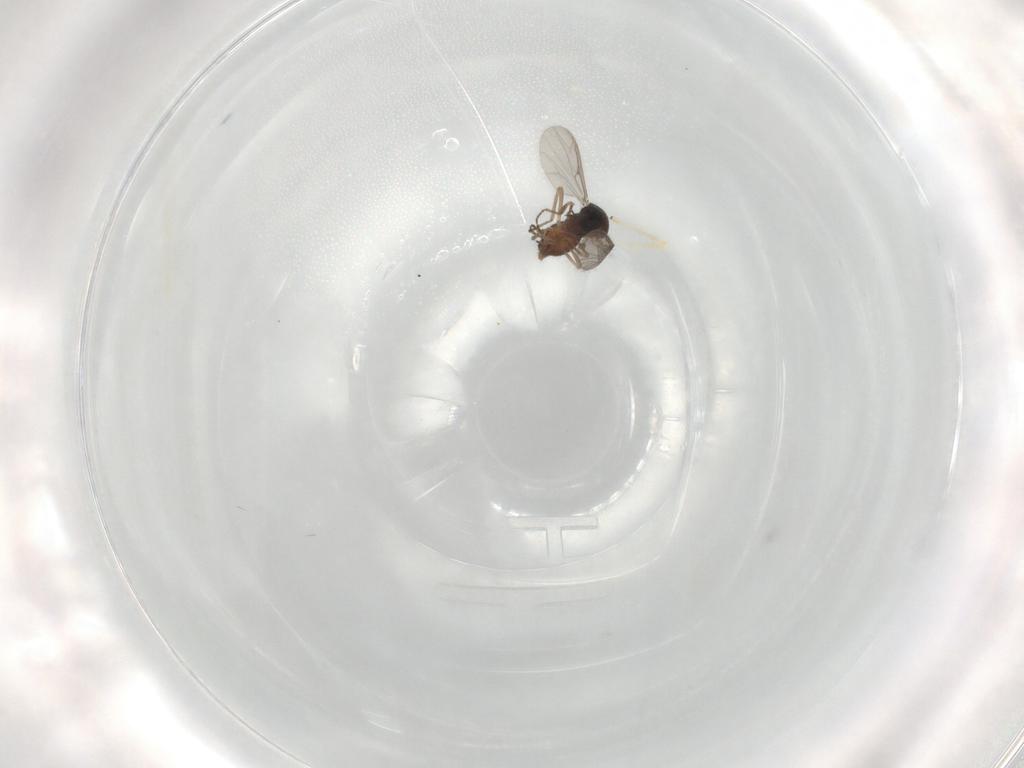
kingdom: Animalia
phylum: Arthropoda
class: Insecta
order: Diptera
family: Ceratopogonidae
